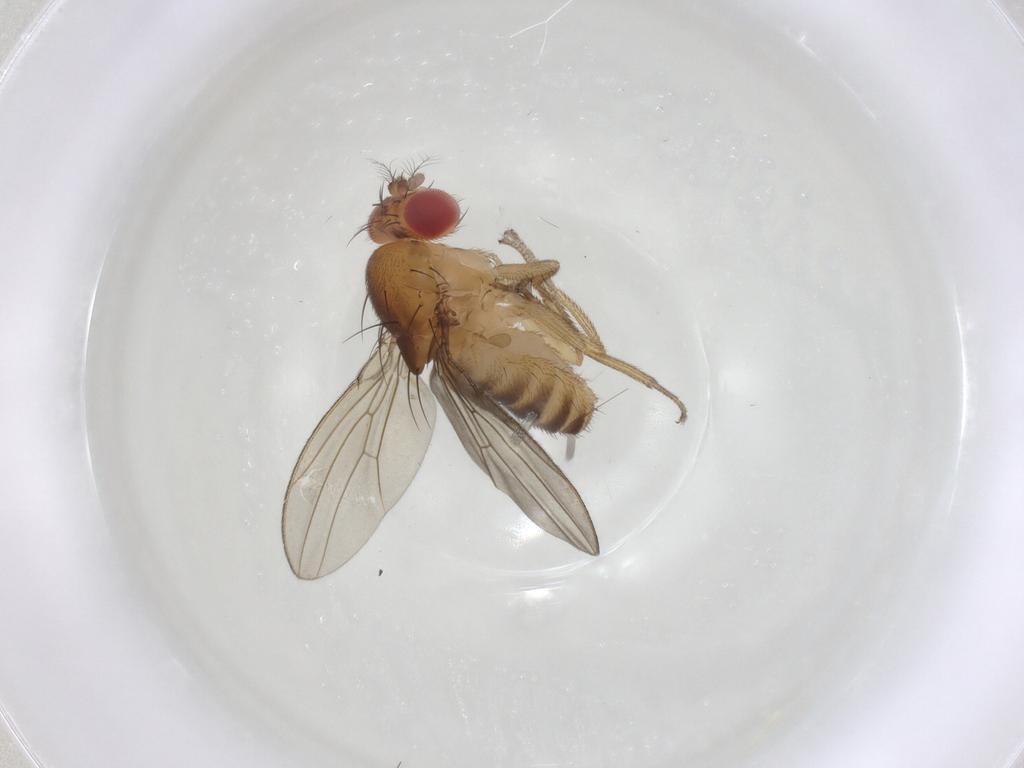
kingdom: Animalia
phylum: Arthropoda
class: Insecta
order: Diptera
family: Drosophilidae
